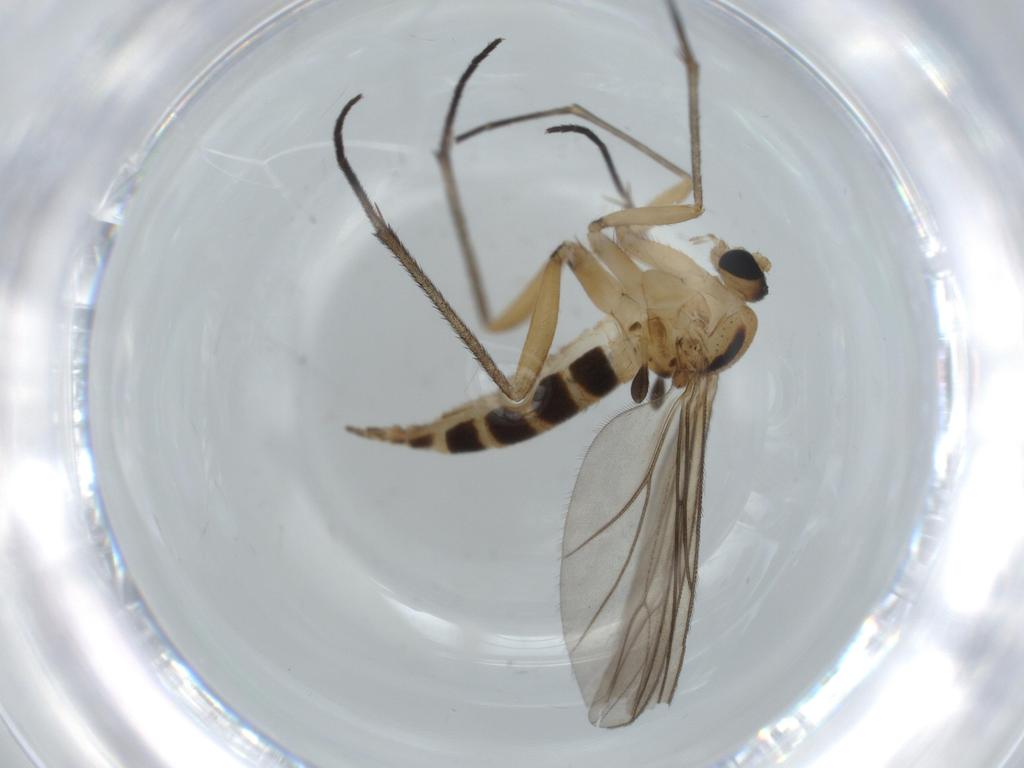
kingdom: Animalia
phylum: Arthropoda
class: Insecta
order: Diptera
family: Sciaridae
